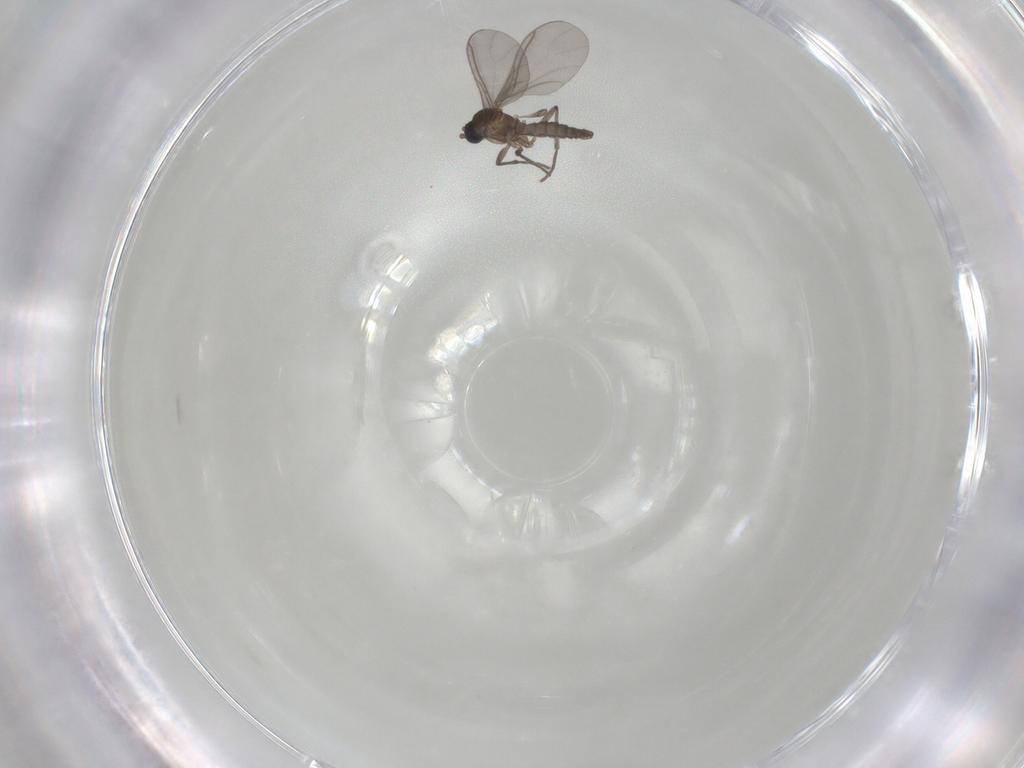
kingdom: Animalia
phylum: Arthropoda
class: Insecta
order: Diptera
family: Sciaridae
